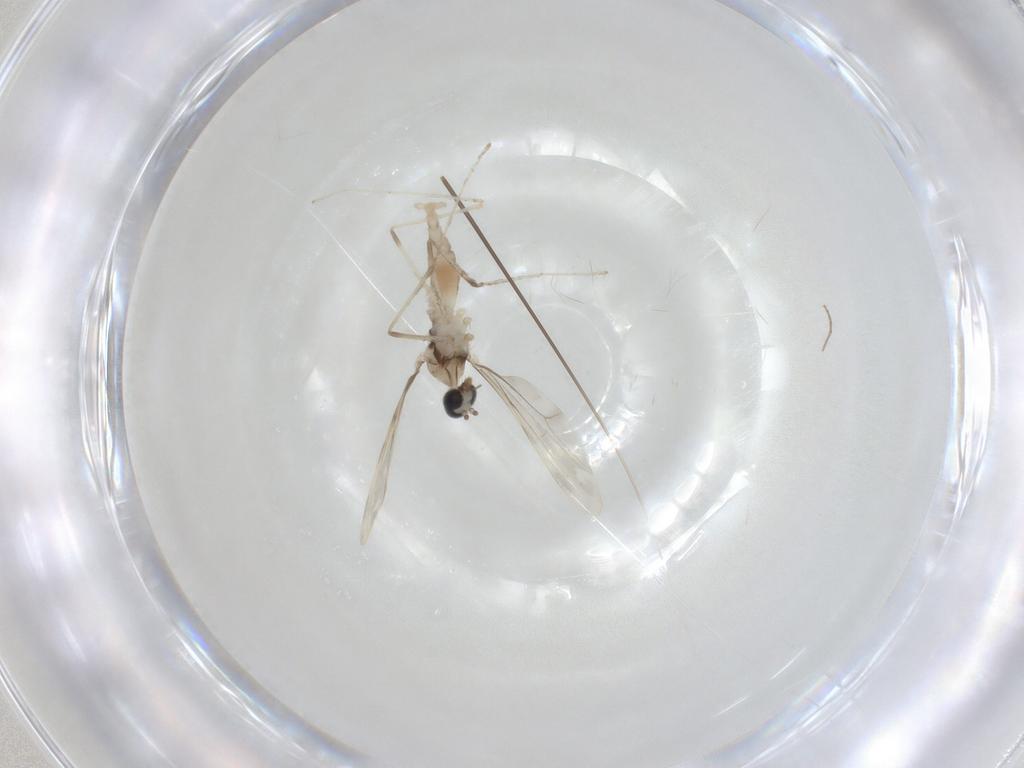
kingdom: Animalia
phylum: Arthropoda
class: Insecta
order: Diptera
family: Cecidomyiidae
